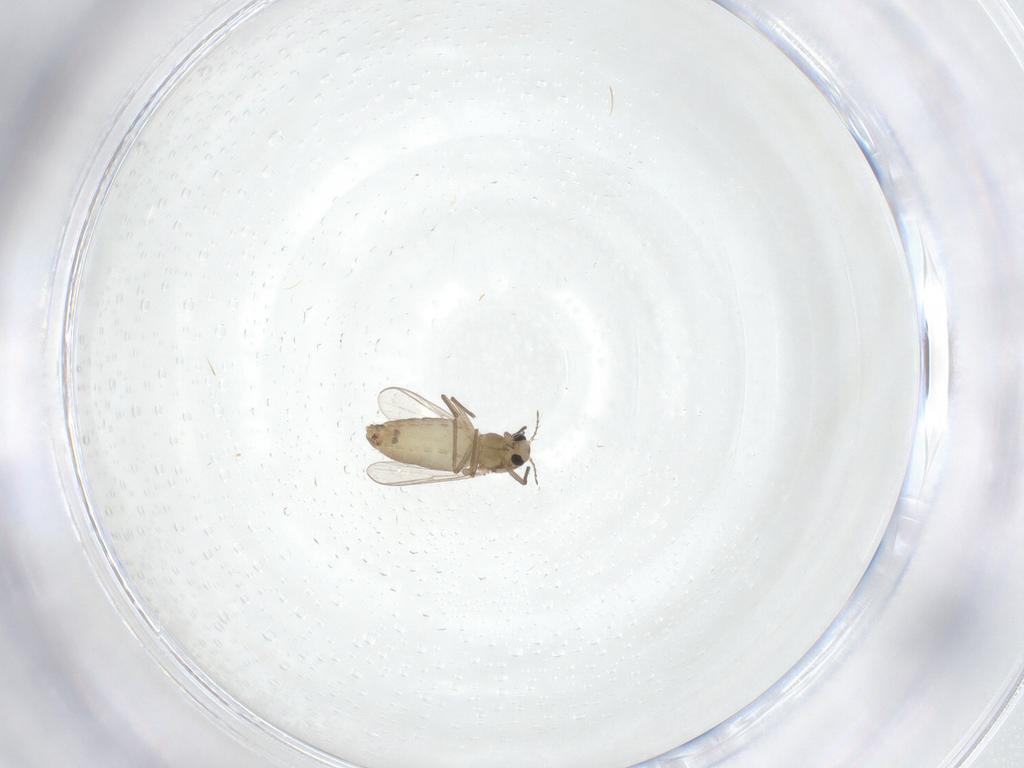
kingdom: Animalia
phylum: Arthropoda
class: Insecta
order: Diptera
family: Chironomidae
